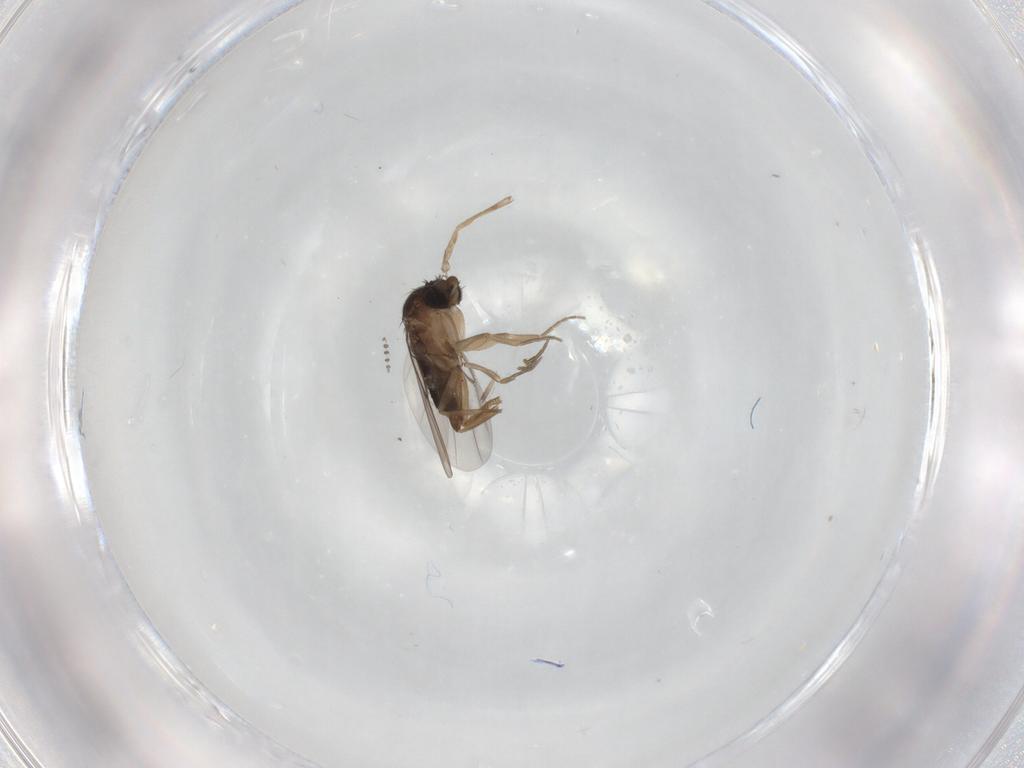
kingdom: Animalia
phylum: Arthropoda
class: Insecta
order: Diptera
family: Phoridae
